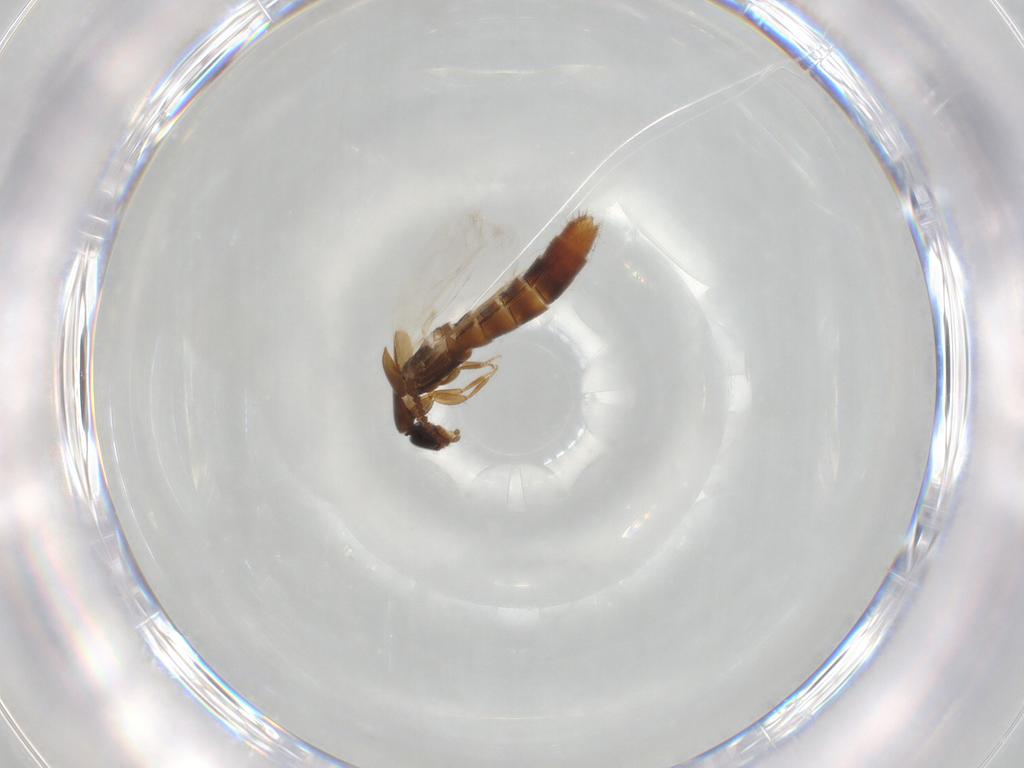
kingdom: Animalia
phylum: Arthropoda
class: Insecta
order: Coleoptera
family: Staphylinidae
